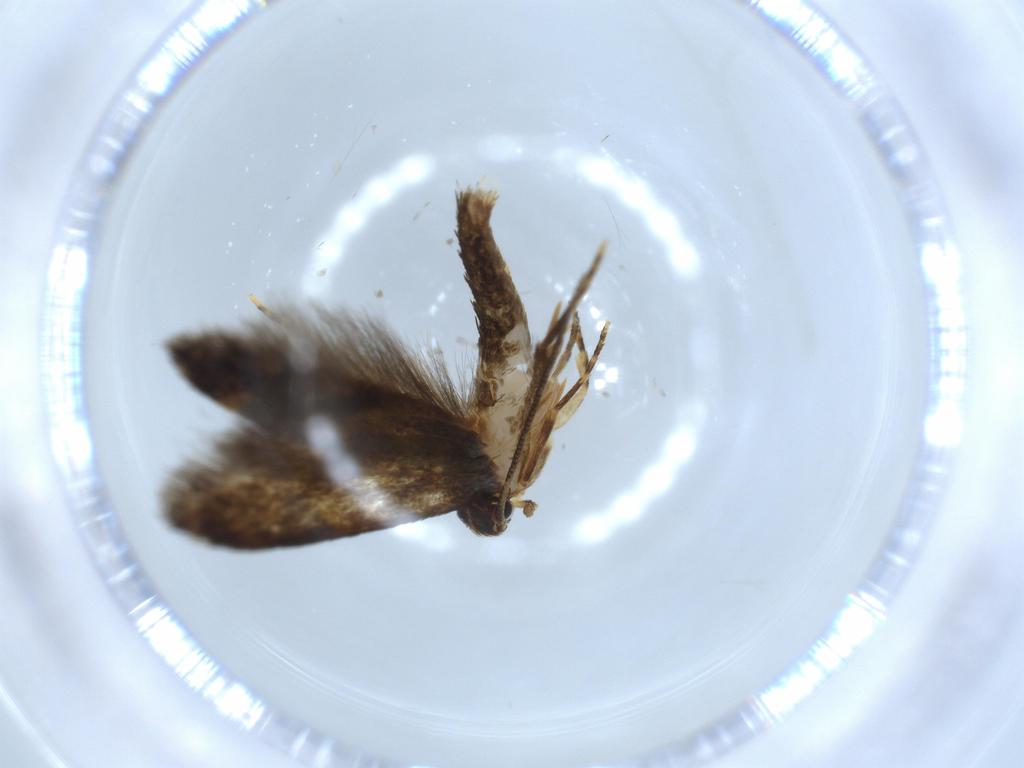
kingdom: Animalia
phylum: Arthropoda
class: Insecta
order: Lepidoptera
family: Tineidae
